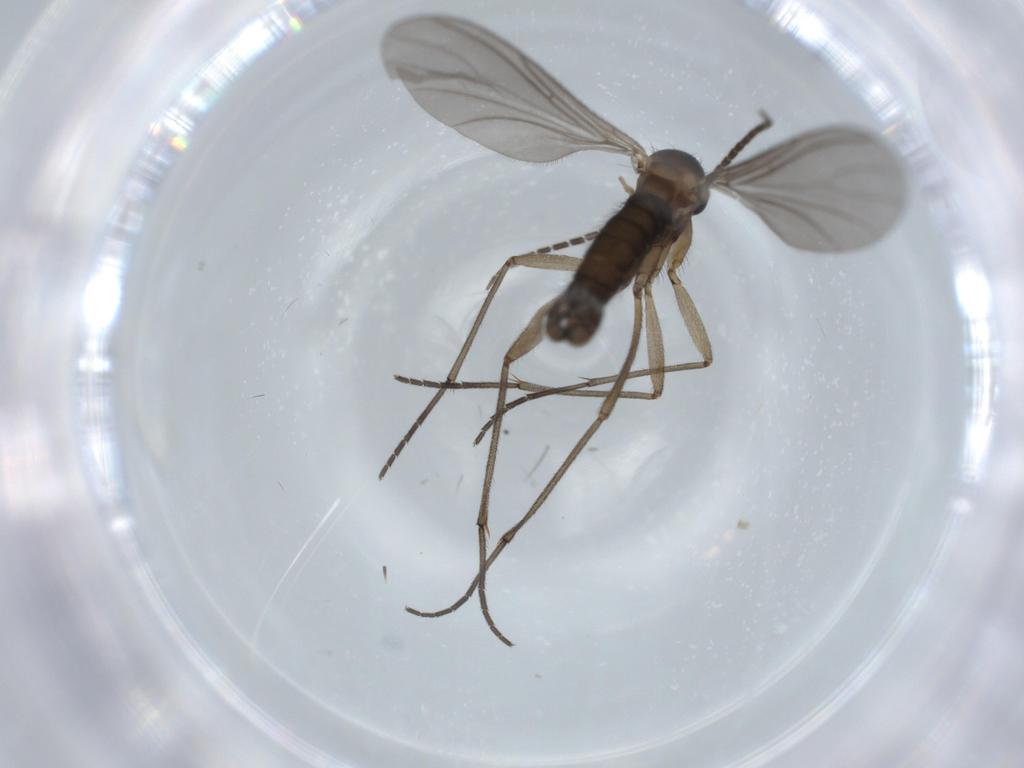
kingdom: Animalia
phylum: Arthropoda
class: Insecta
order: Diptera
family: Sciaridae
